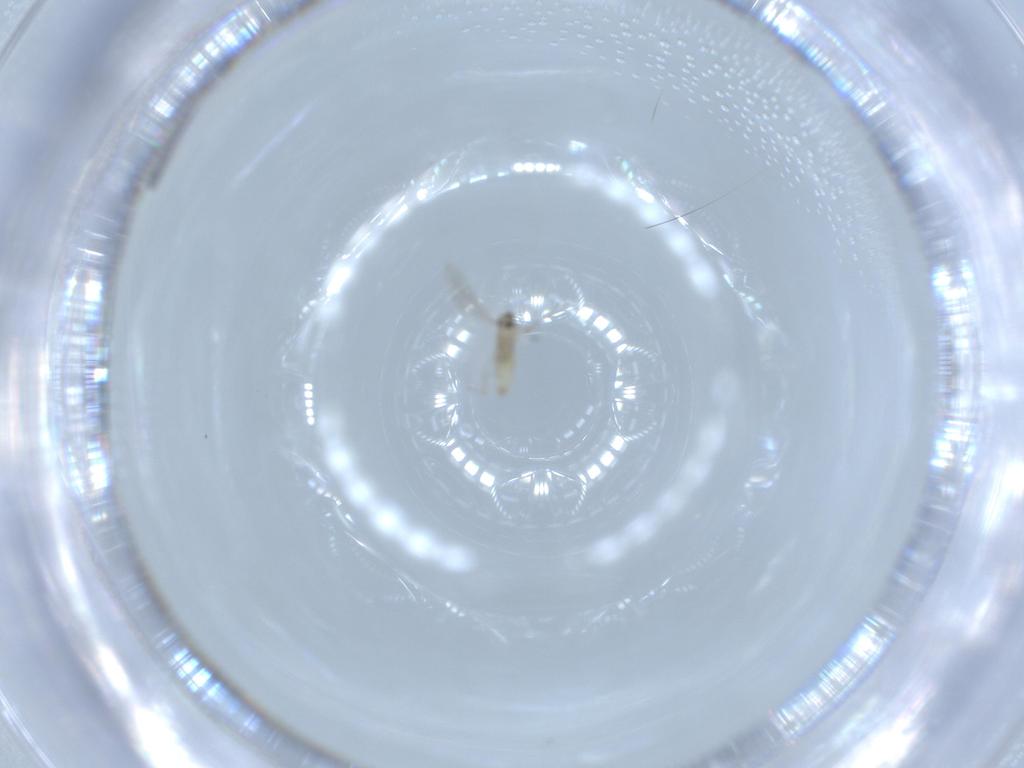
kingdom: Animalia
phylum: Arthropoda
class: Insecta
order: Diptera
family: Cecidomyiidae
